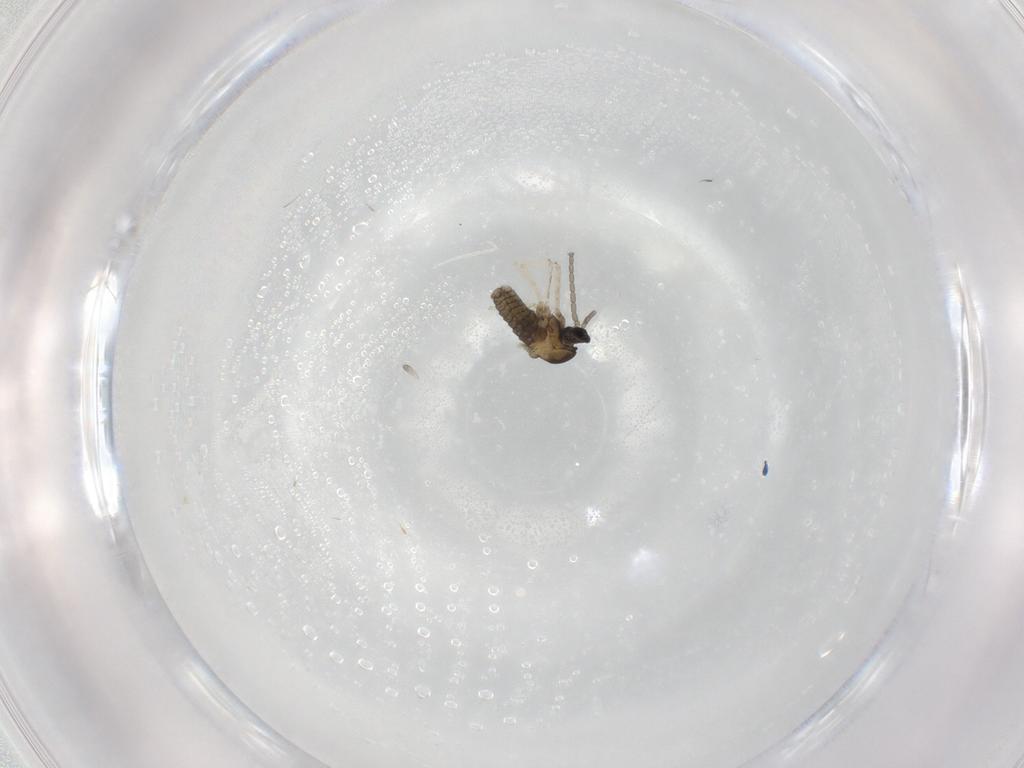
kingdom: Animalia
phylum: Arthropoda
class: Insecta
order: Diptera
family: Cecidomyiidae
